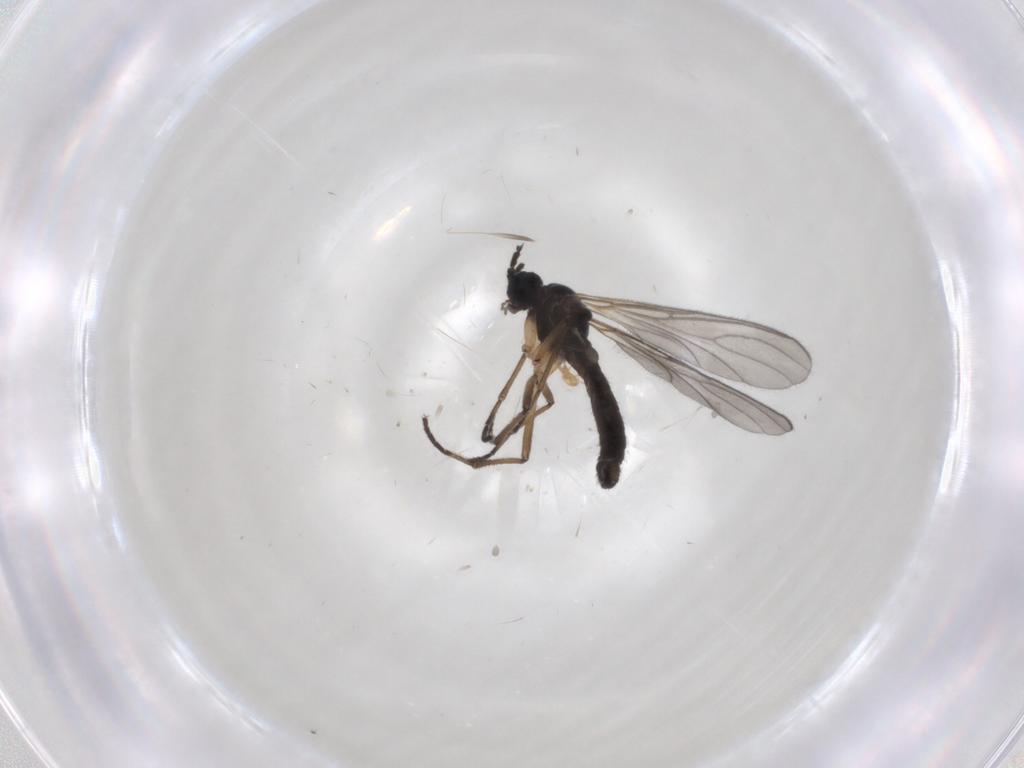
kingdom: Animalia
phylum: Arthropoda
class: Insecta
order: Diptera
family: Sciaridae
